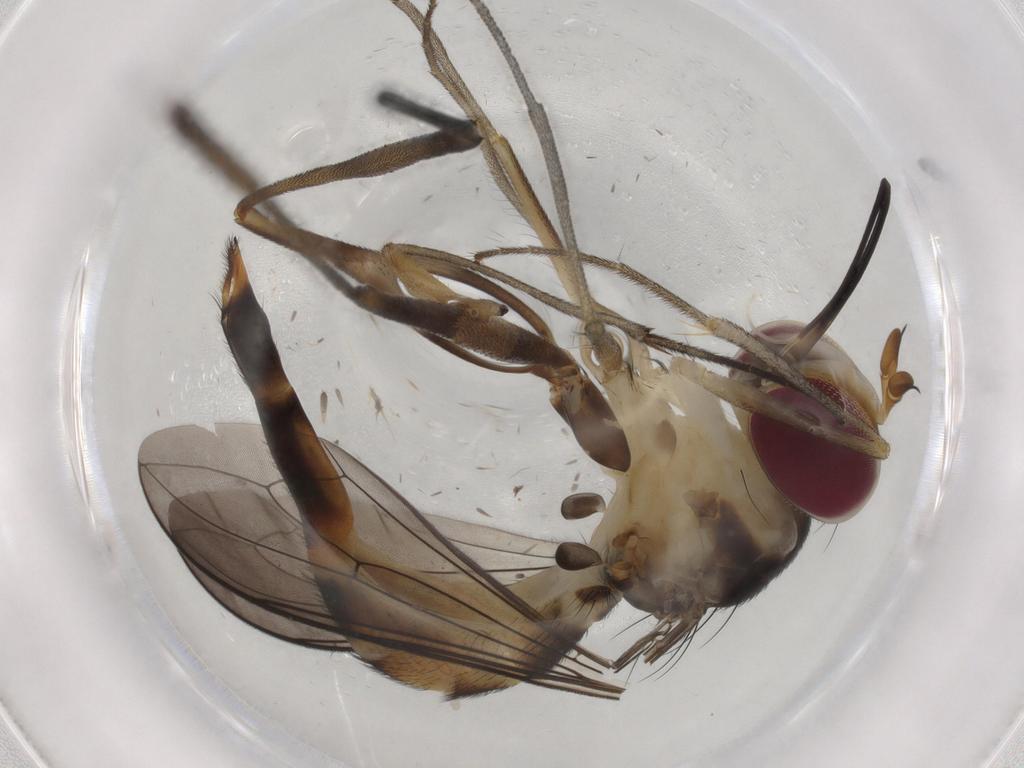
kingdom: Animalia
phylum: Arthropoda
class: Insecta
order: Diptera
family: Sciaridae
